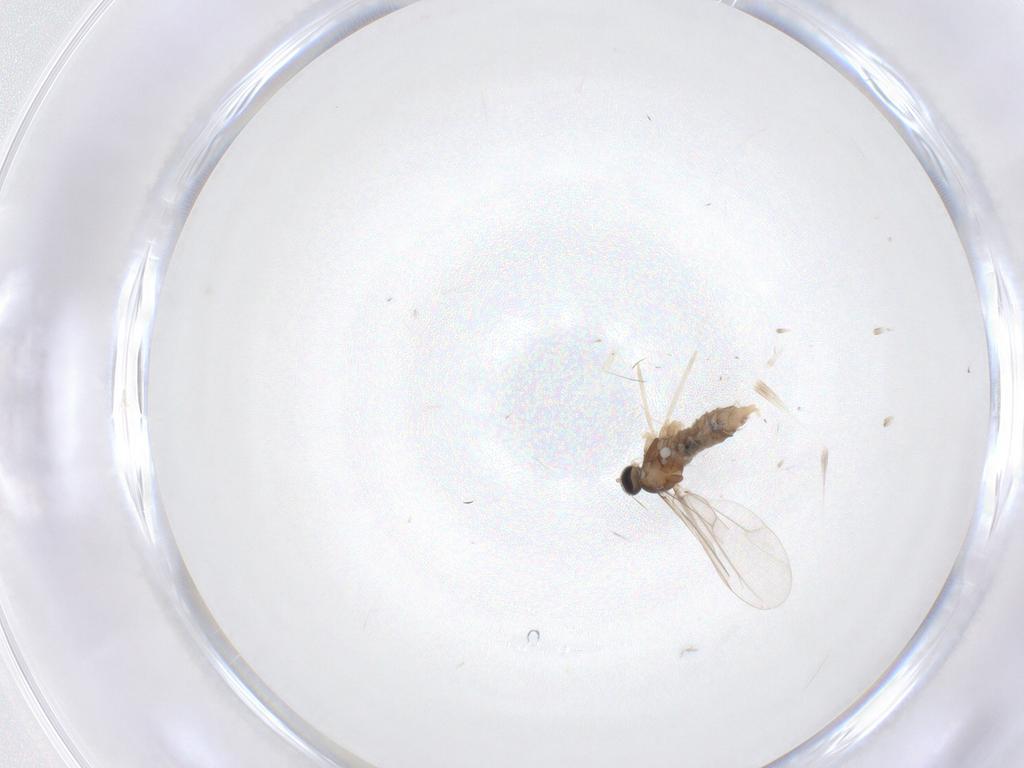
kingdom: Animalia
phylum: Arthropoda
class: Insecta
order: Diptera
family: Cecidomyiidae
